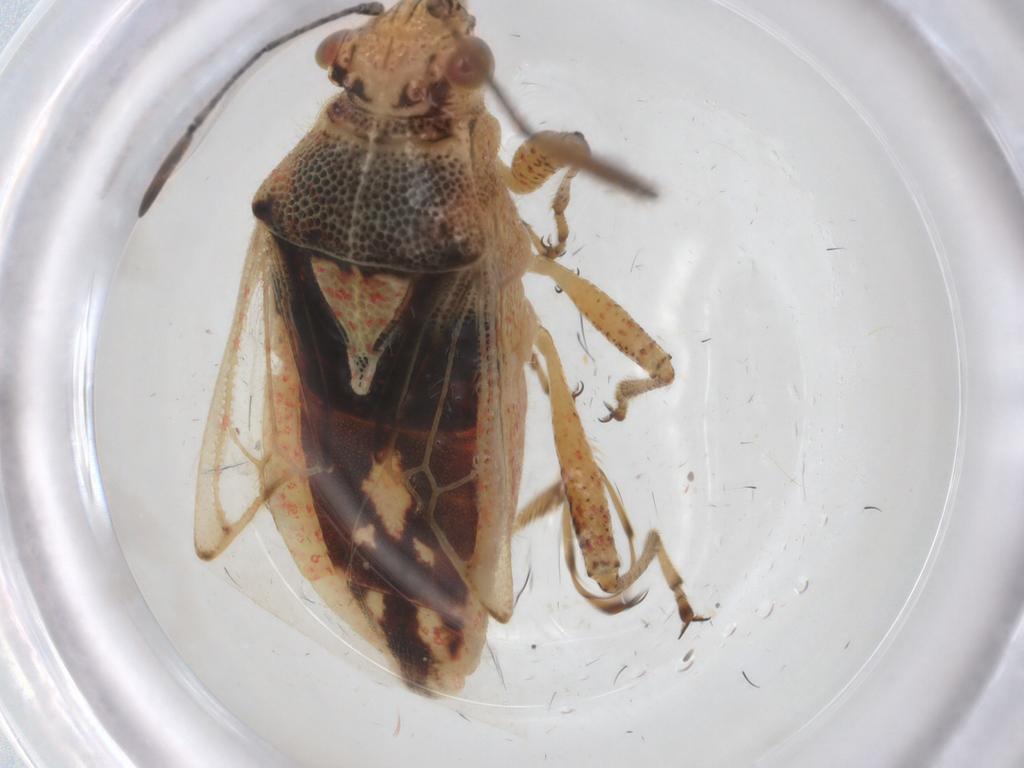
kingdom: Animalia
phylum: Arthropoda
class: Insecta
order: Hemiptera
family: Rhopalidae
